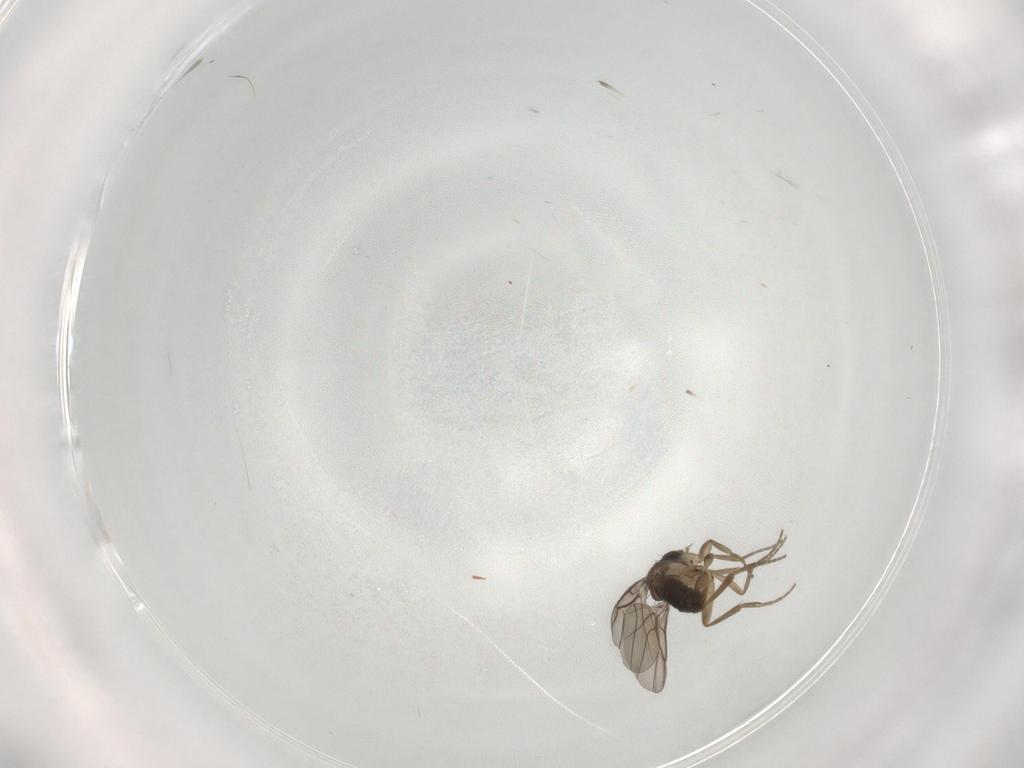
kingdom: Animalia
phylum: Arthropoda
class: Insecta
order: Diptera
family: Phoridae
